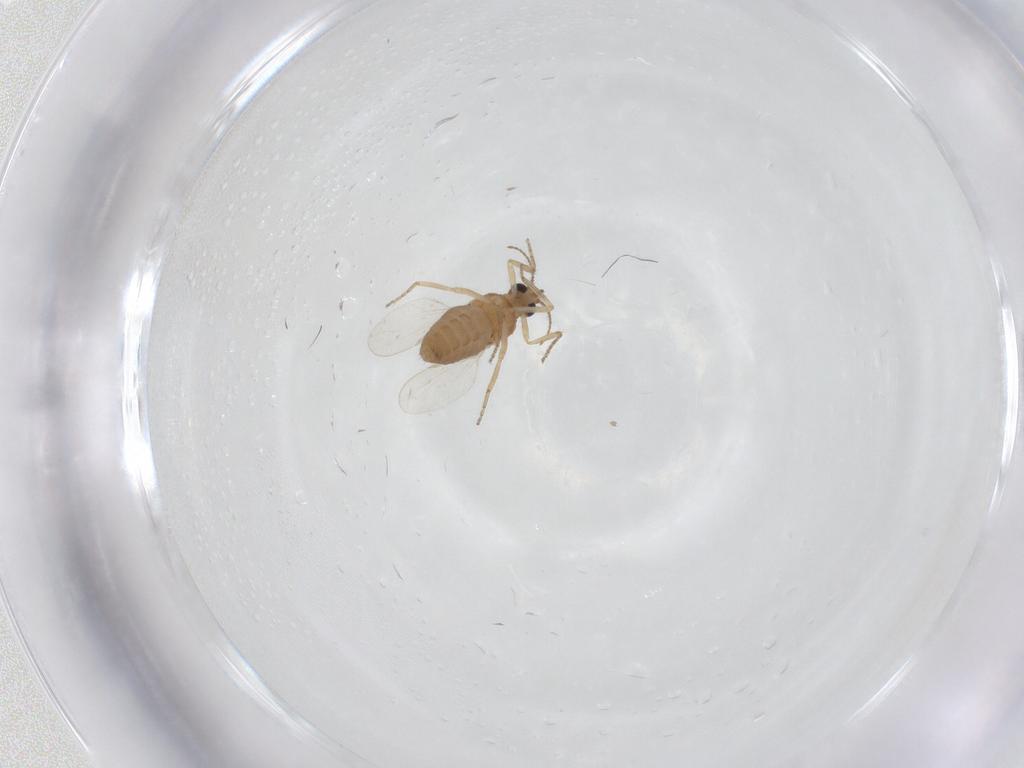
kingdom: Animalia
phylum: Arthropoda
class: Insecta
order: Diptera
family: Ceratopogonidae
